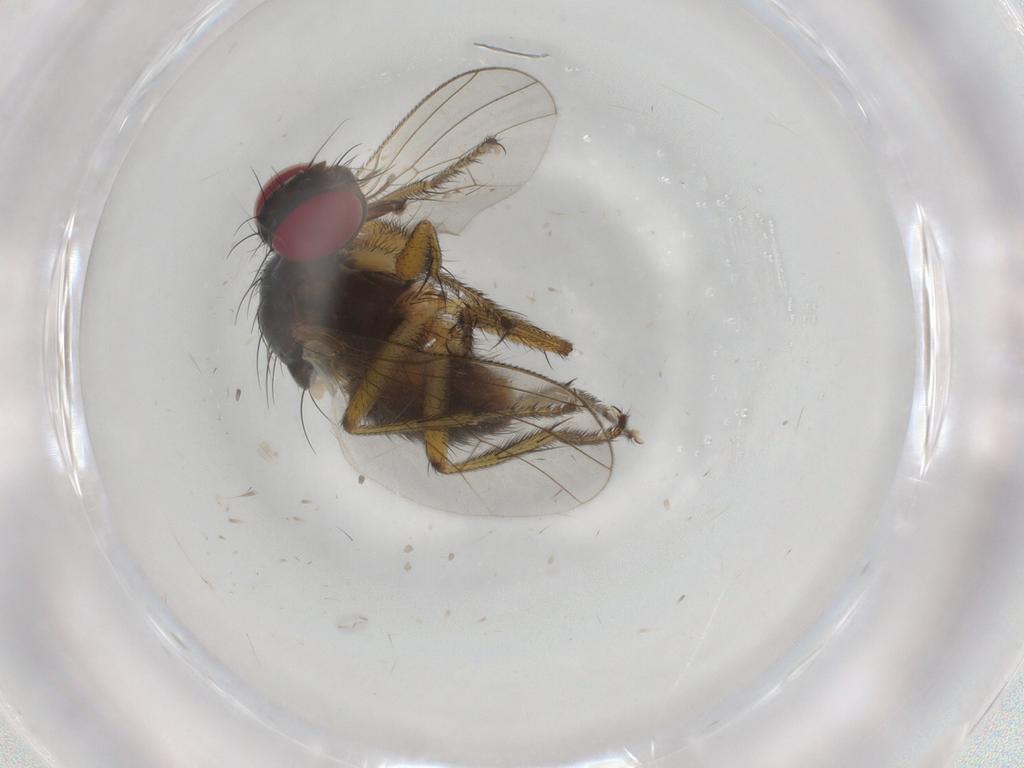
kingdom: Animalia
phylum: Arthropoda
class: Insecta
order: Diptera
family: Muscidae
